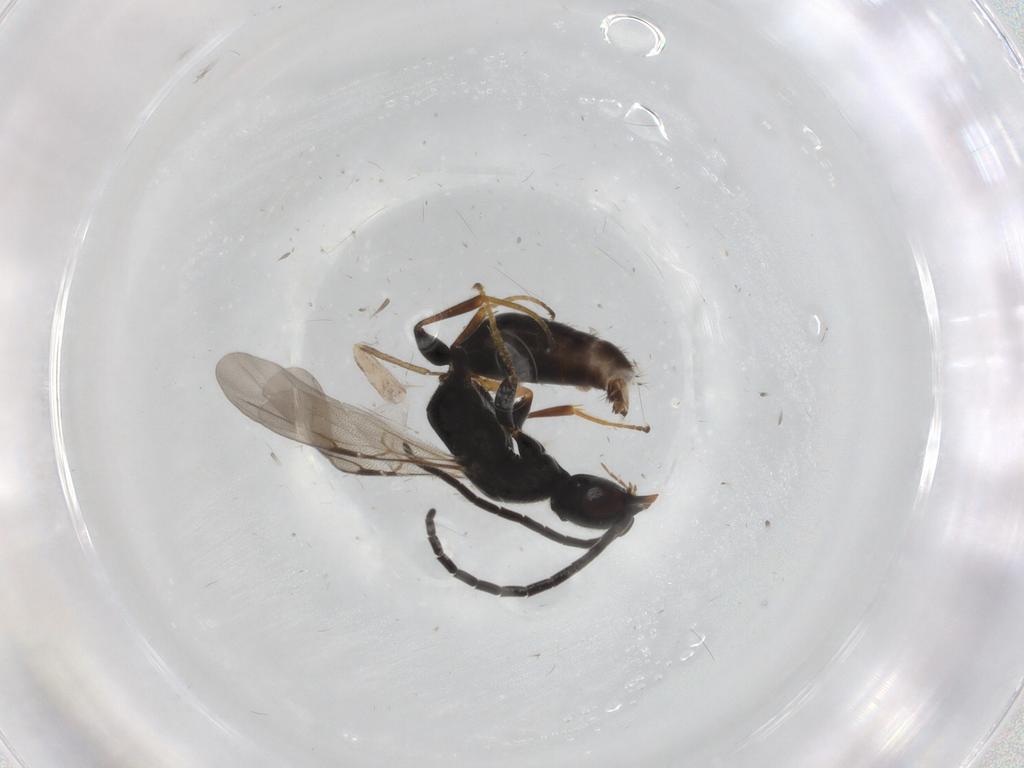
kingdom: Animalia
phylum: Arthropoda
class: Insecta
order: Hymenoptera
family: Bethylidae
